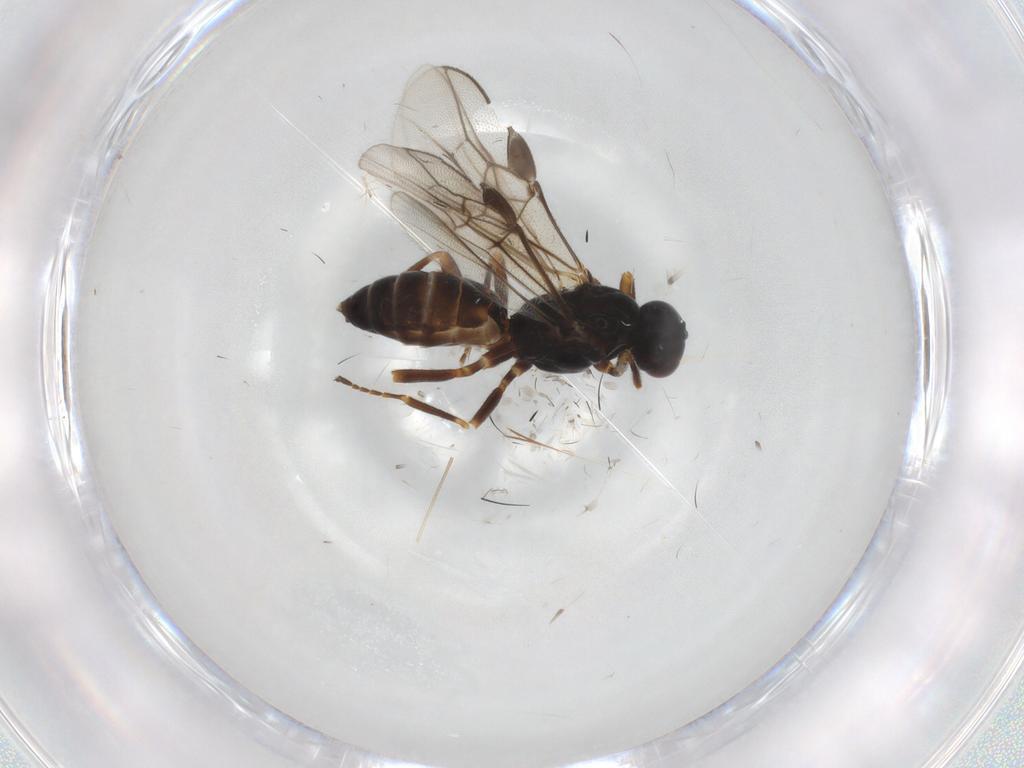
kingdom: Animalia
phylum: Arthropoda
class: Insecta
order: Hymenoptera
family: Braconidae
